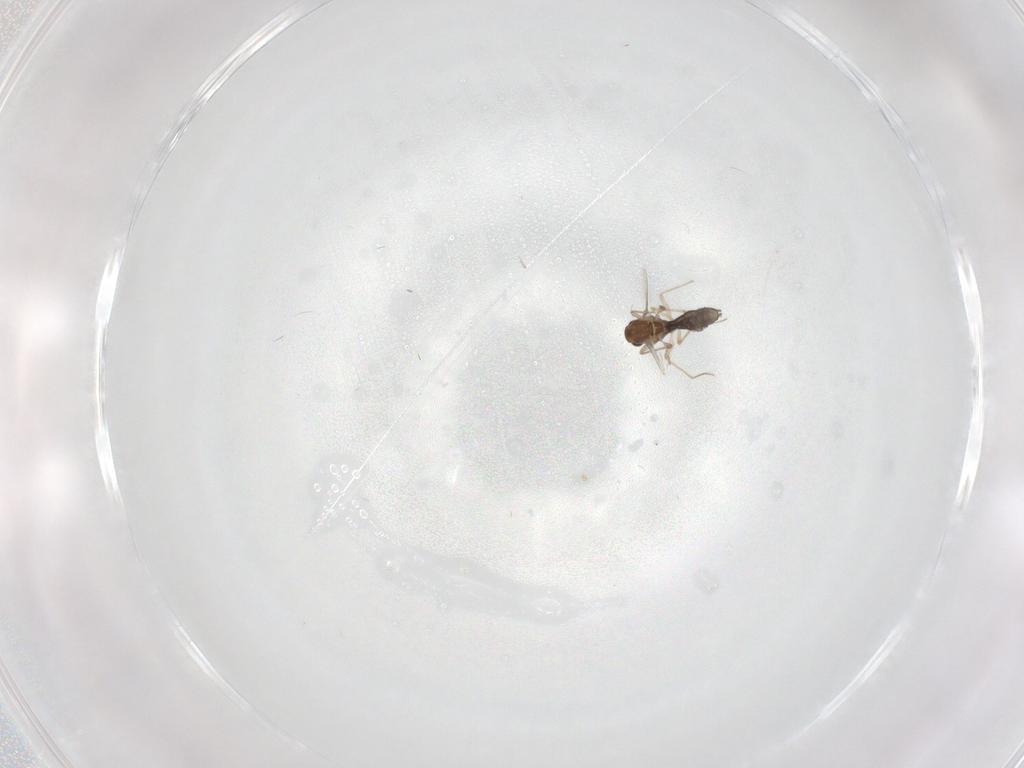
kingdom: Animalia
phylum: Arthropoda
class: Insecta
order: Diptera
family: Chironomidae
